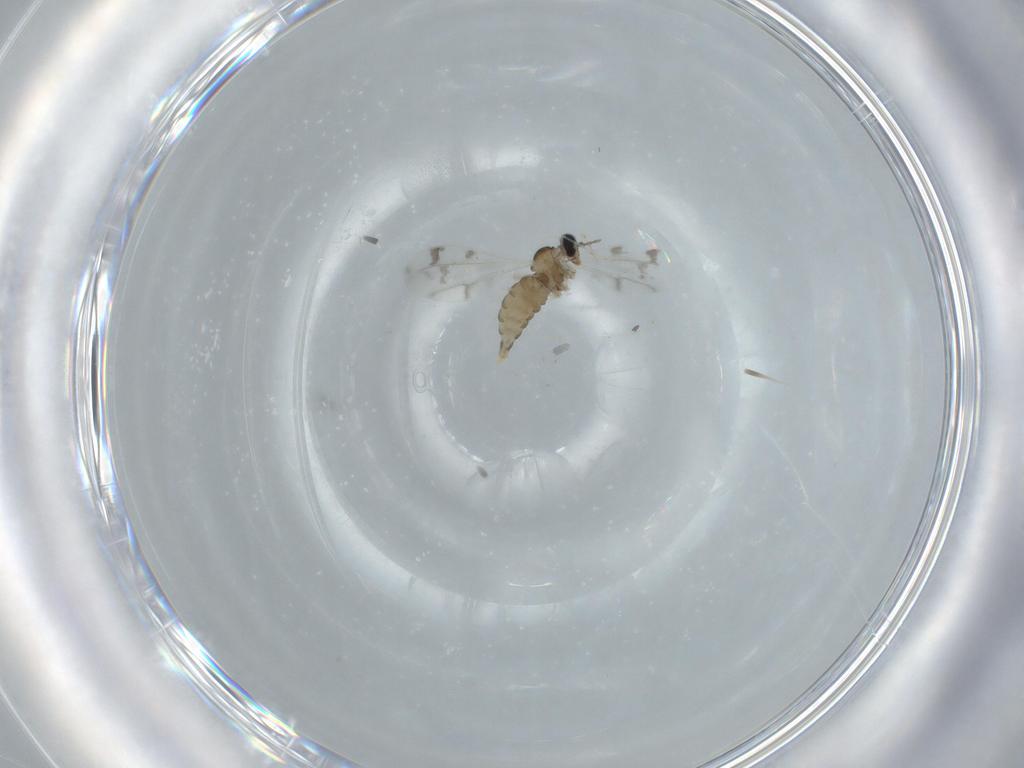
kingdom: Animalia
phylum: Arthropoda
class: Insecta
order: Diptera
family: Cecidomyiidae
